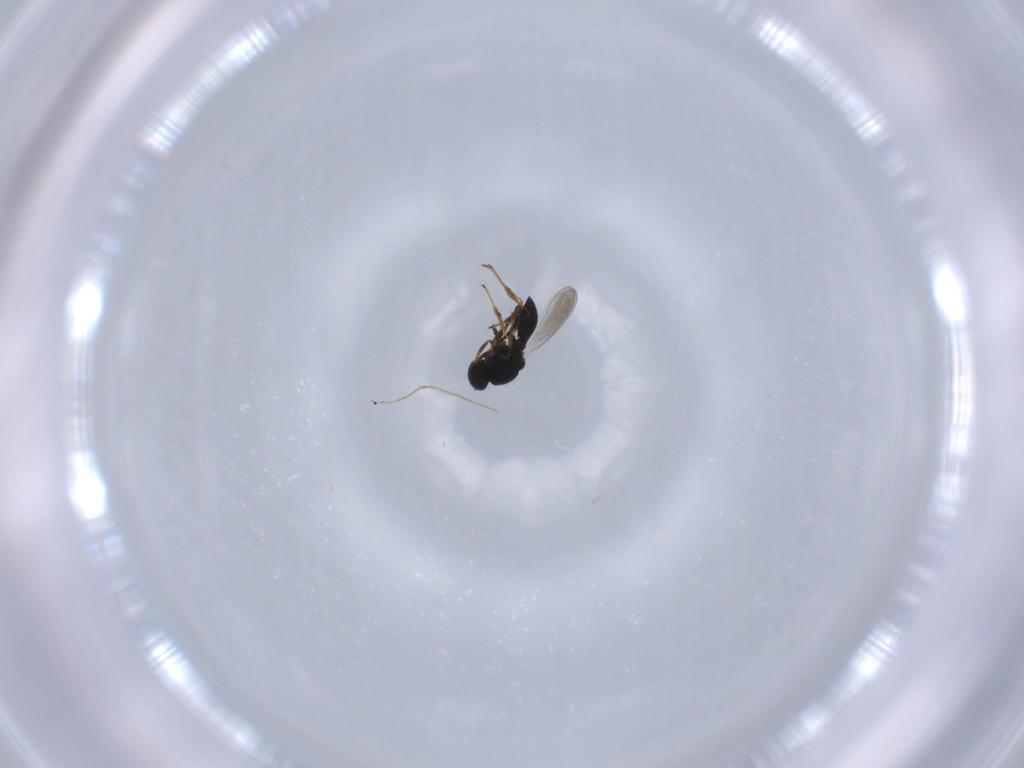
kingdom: Animalia
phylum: Arthropoda
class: Insecta
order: Hymenoptera
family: Platygastridae
